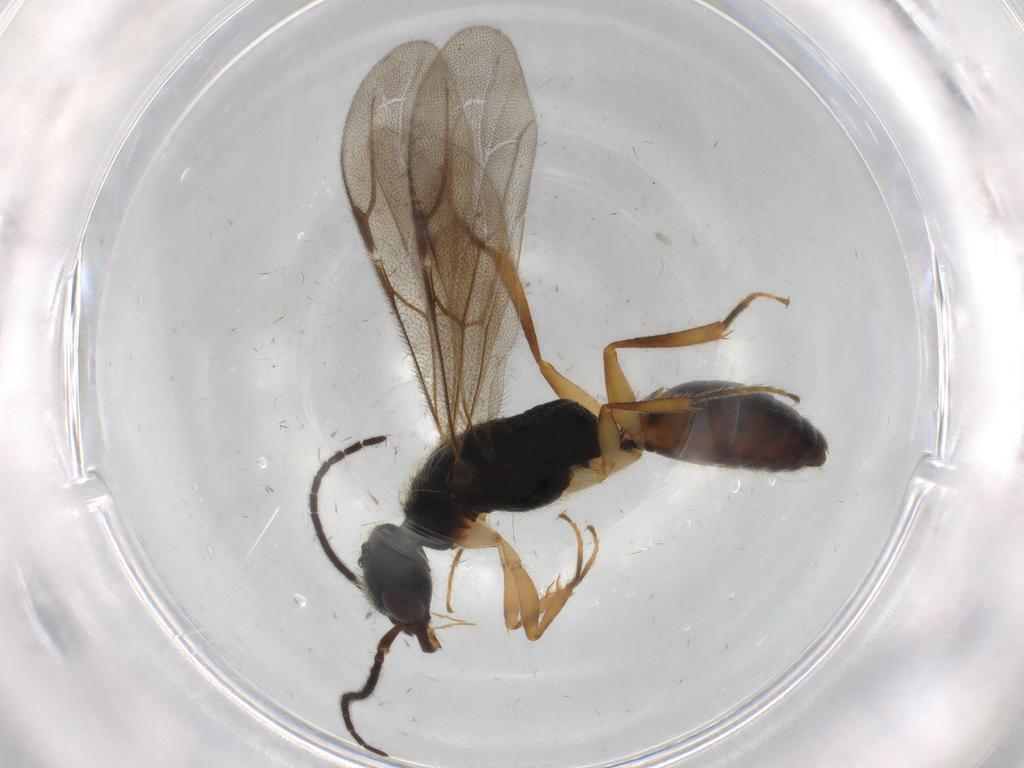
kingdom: Animalia
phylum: Arthropoda
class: Insecta
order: Hymenoptera
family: Bethylidae
